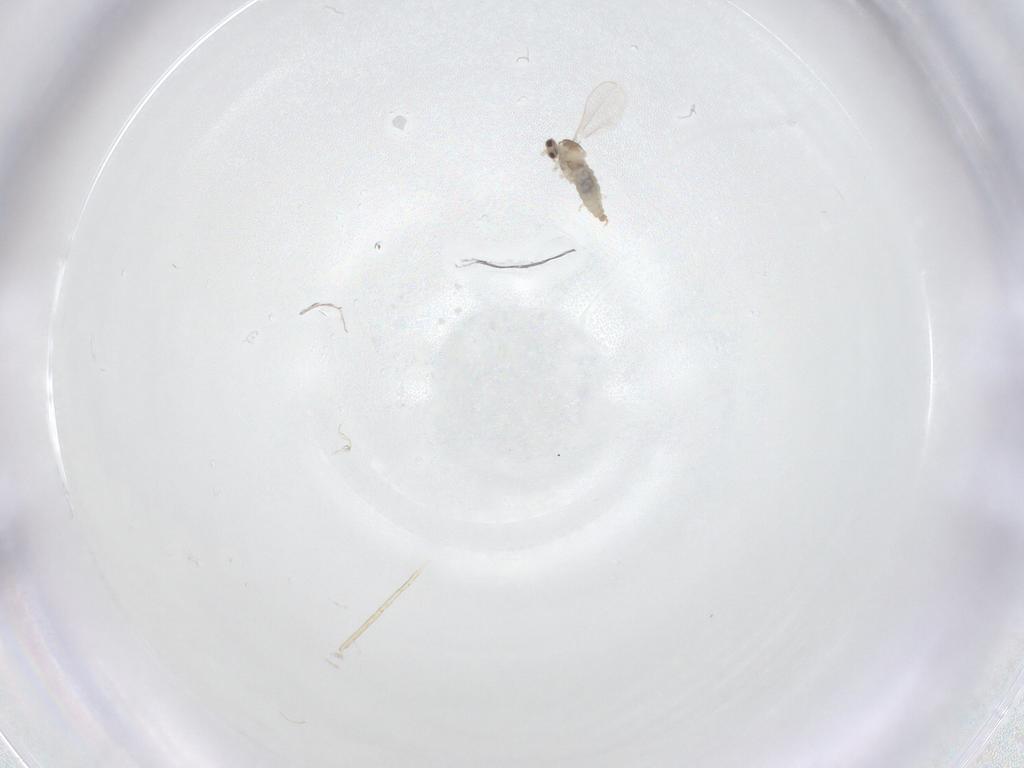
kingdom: Animalia
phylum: Arthropoda
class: Insecta
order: Diptera
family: Cecidomyiidae
